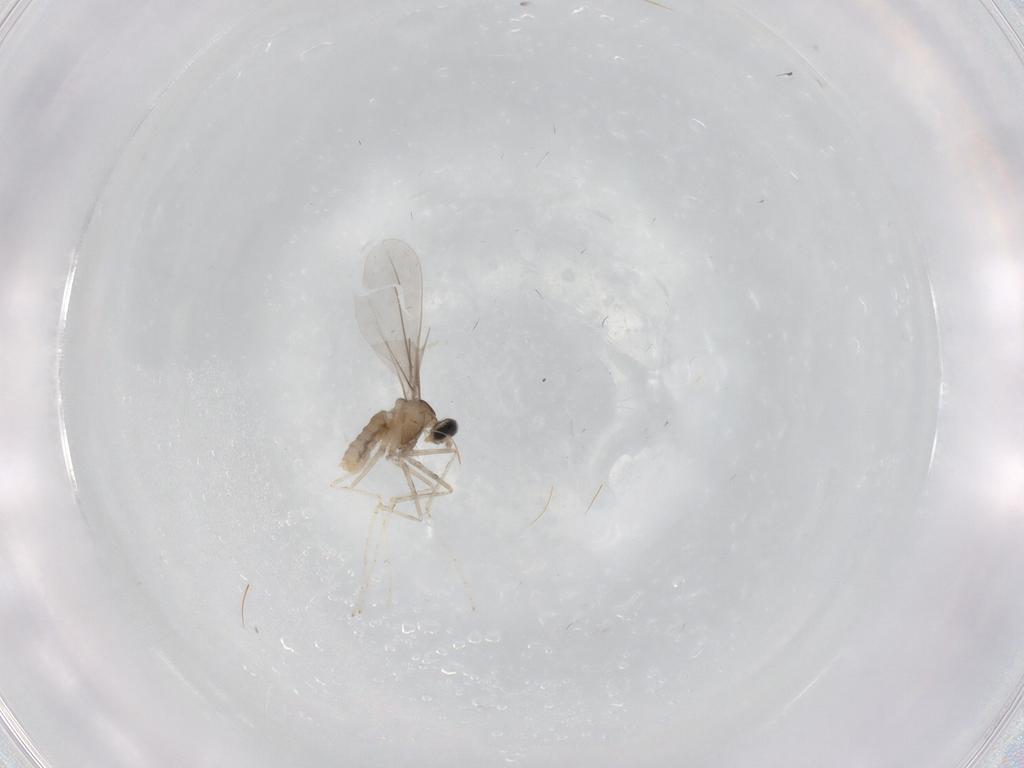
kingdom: Animalia
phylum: Arthropoda
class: Insecta
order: Diptera
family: Cecidomyiidae
